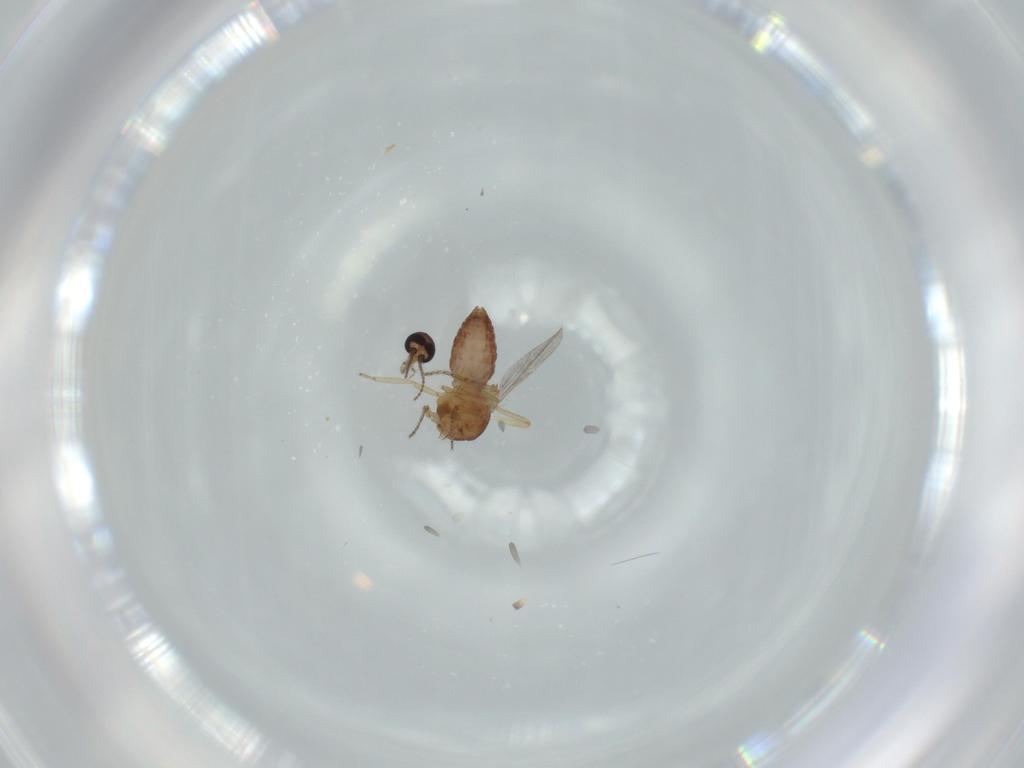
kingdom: Animalia
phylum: Arthropoda
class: Insecta
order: Diptera
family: Ceratopogonidae
